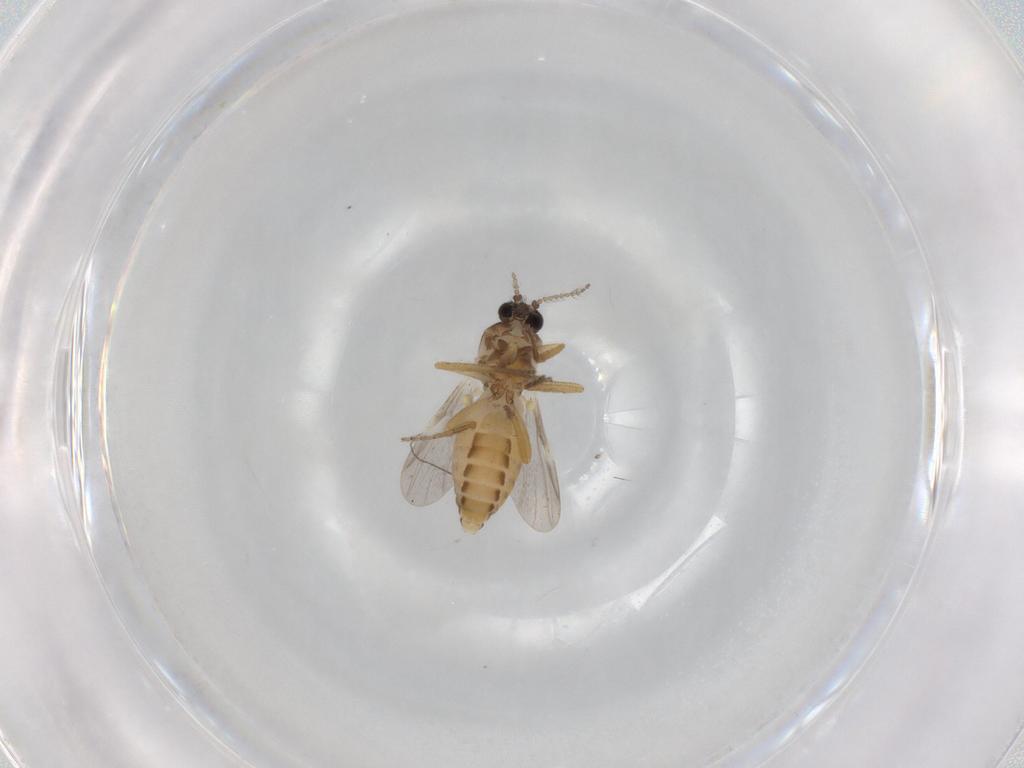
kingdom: Animalia
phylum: Arthropoda
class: Insecta
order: Diptera
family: Ceratopogonidae
